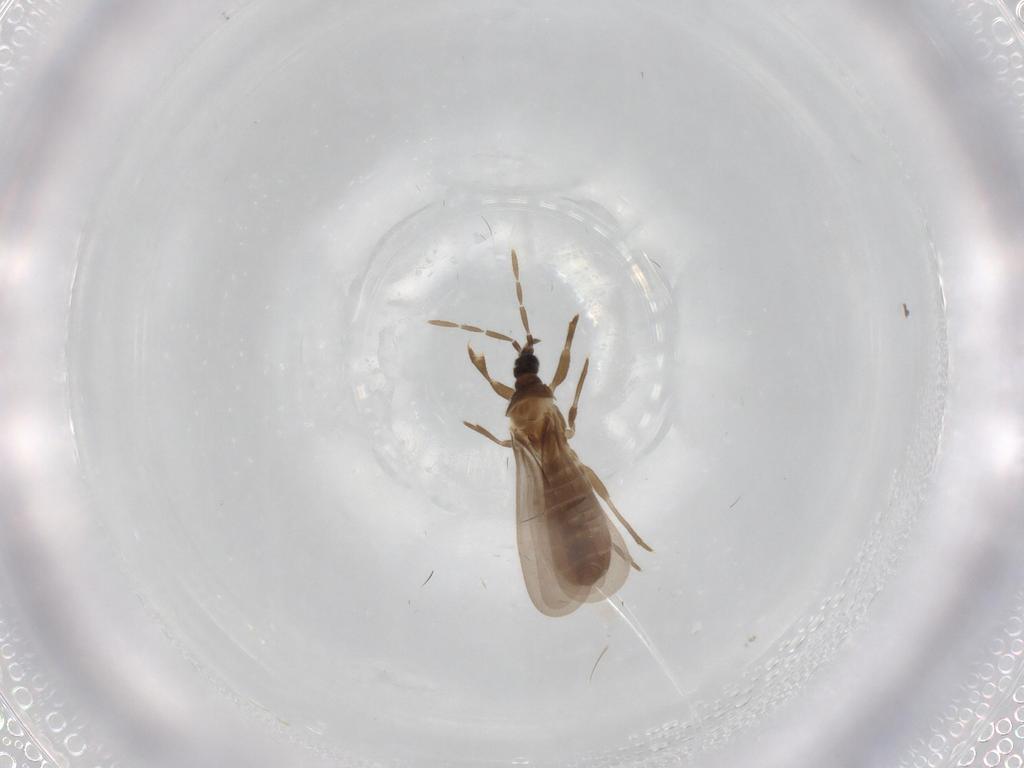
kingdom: Animalia
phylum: Arthropoda
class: Insecta
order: Hemiptera
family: Enicocephalidae
